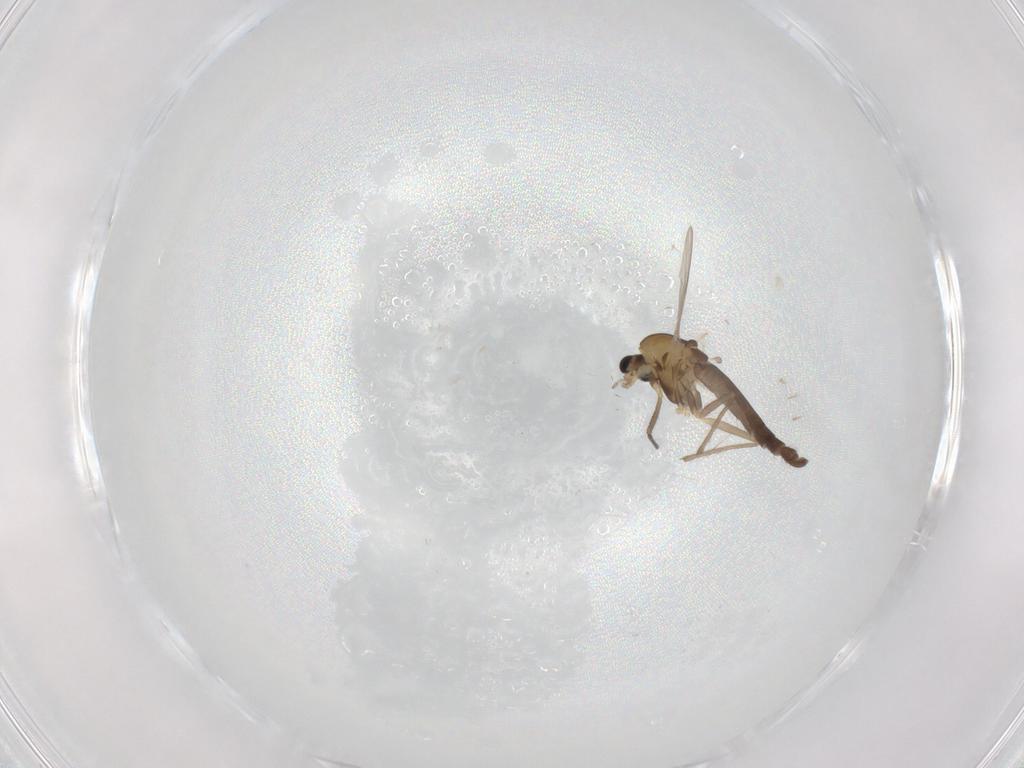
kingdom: Animalia
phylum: Arthropoda
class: Insecta
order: Diptera
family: Chironomidae
